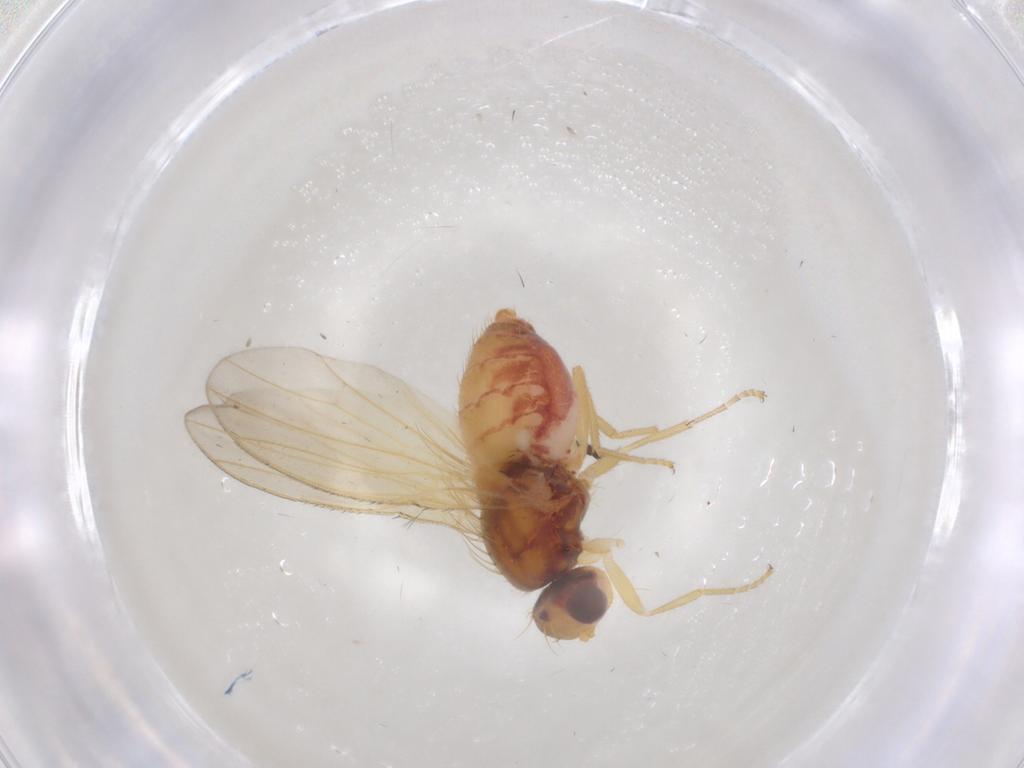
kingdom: Animalia
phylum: Arthropoda
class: Insecta
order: Diptera
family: Heleomyzidae
